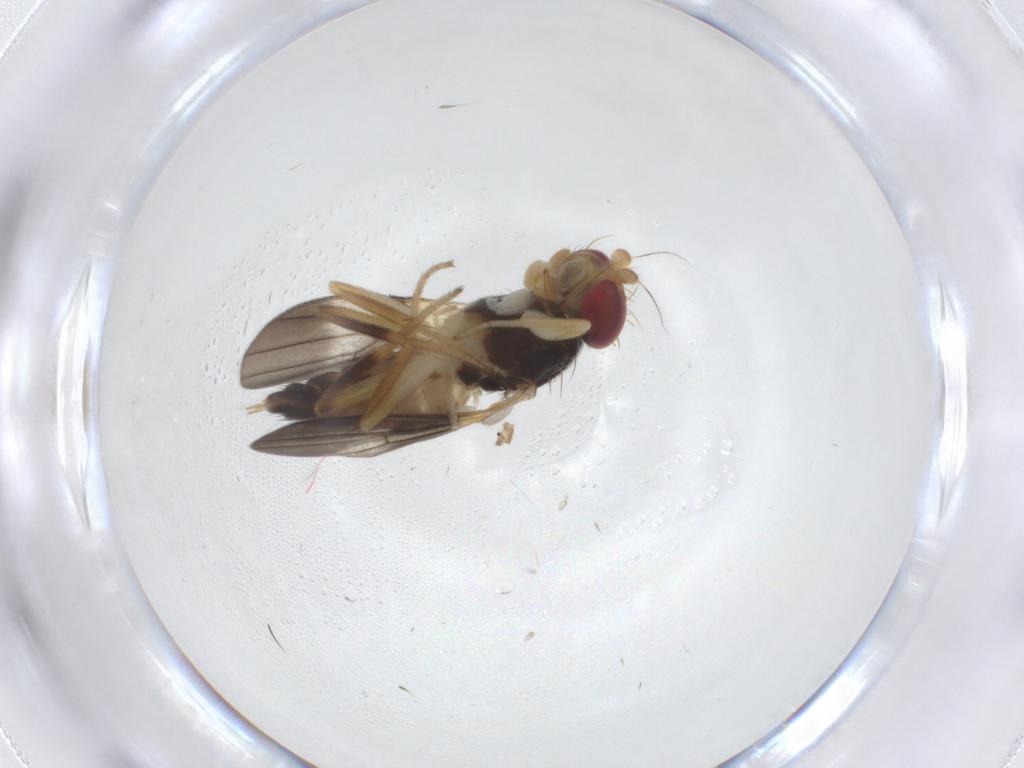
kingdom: Animalia
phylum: Arthropoda
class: Insecta
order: Diptera
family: Clusiidae
